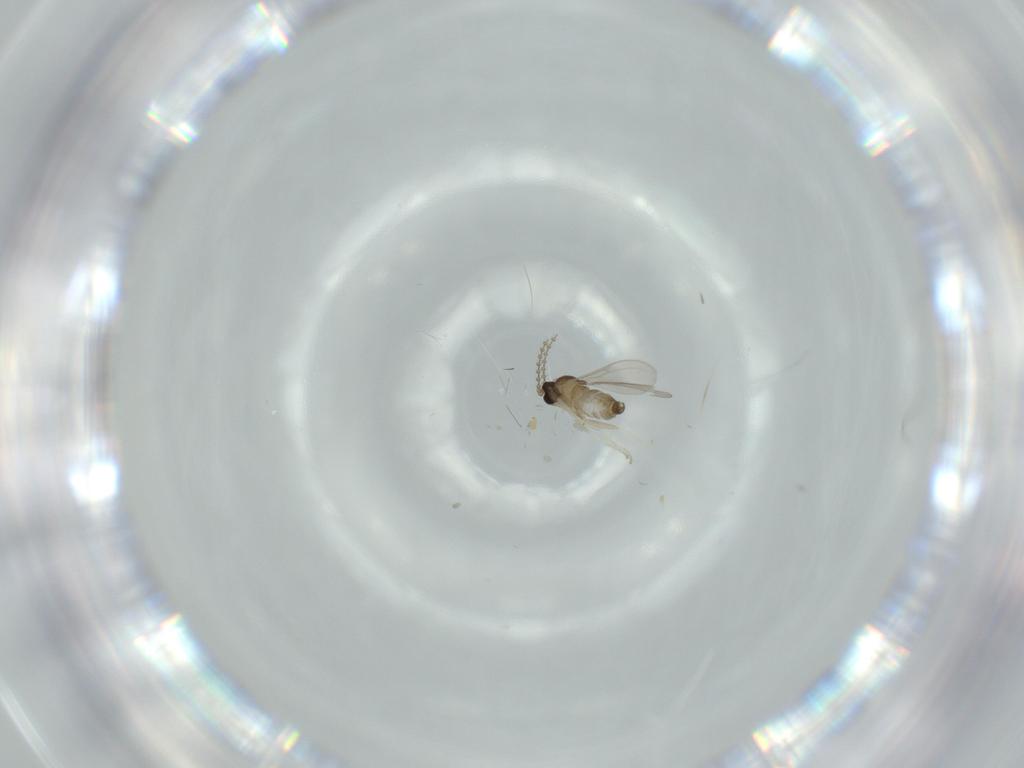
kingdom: Animalia
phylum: Arthropoda
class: Insecta
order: Diptera
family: Cecidomyiidae
